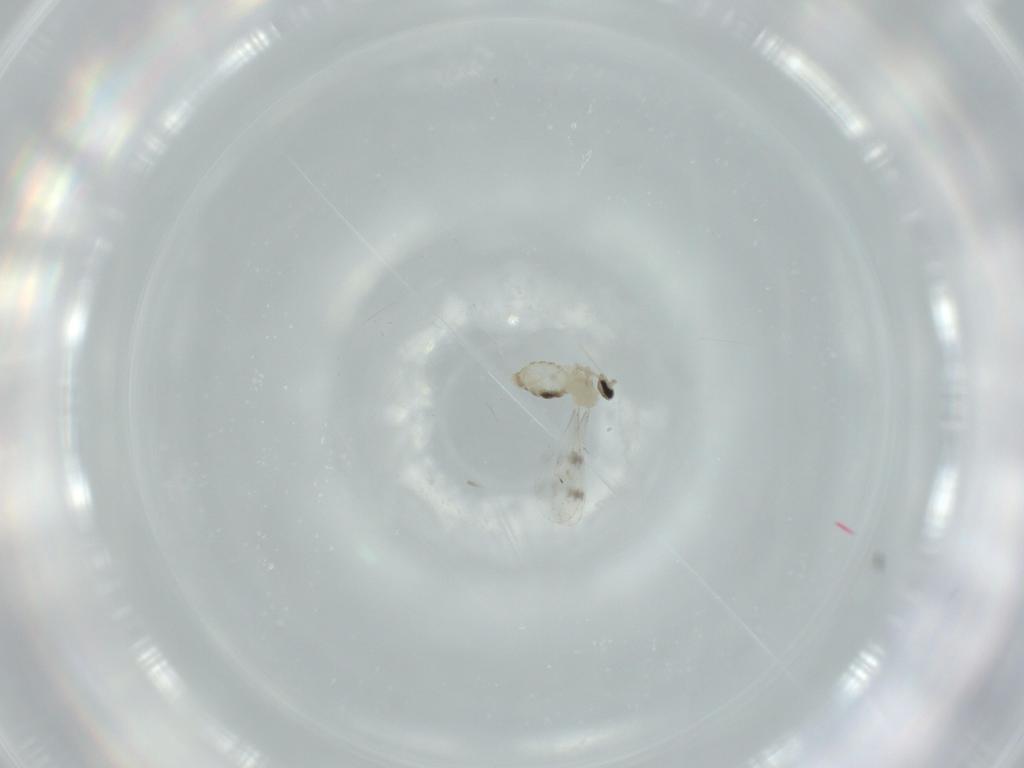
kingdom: Animalia
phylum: Arthropoda
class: Insecta
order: Diptera
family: Cecidomyiidae
